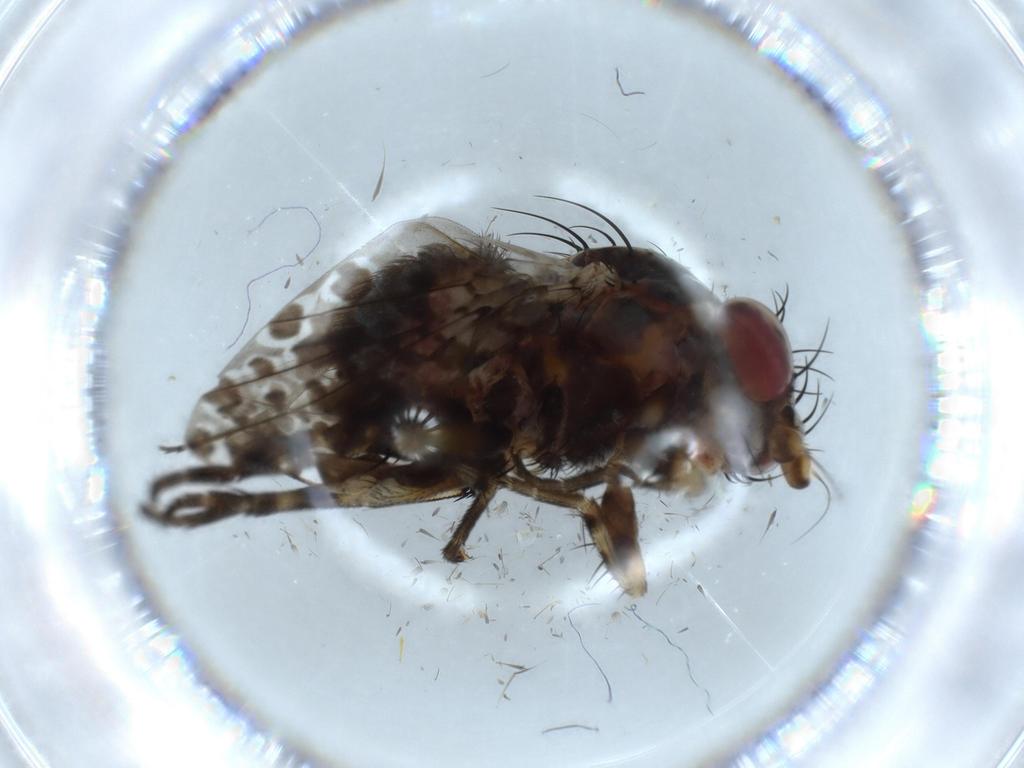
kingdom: Animalia
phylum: Arthropoda
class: Insecta
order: Diptera
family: Odiniidae
